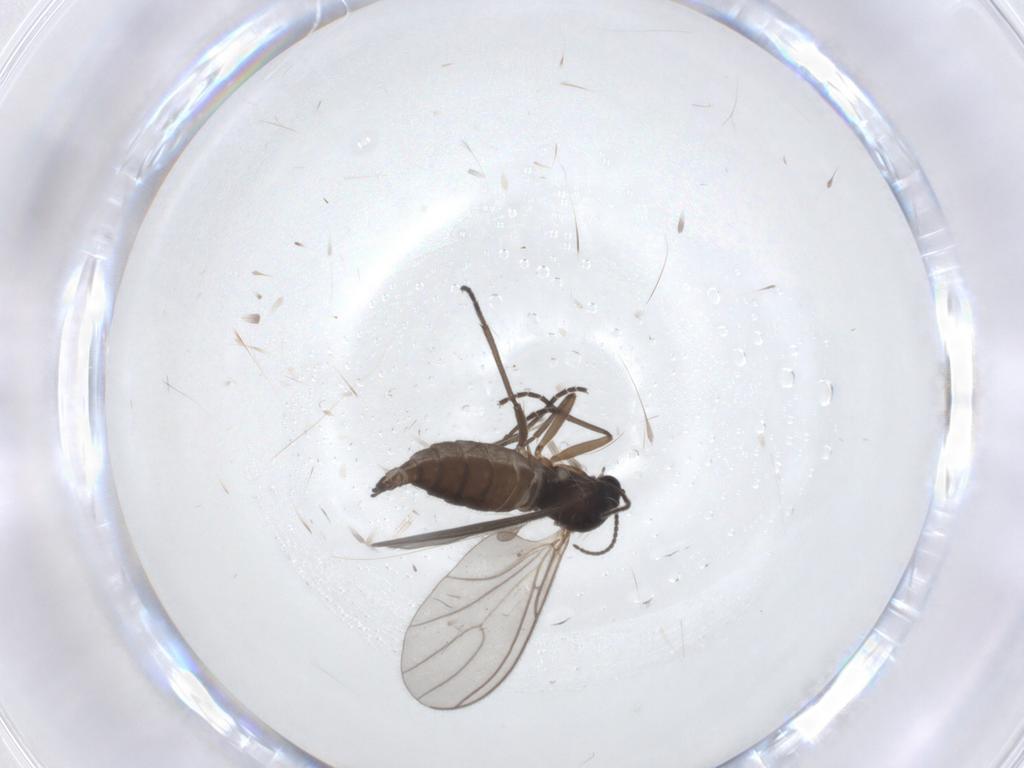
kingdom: Animalia
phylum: Arthropoda
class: Insecta
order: Diptera
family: Sciaridae
